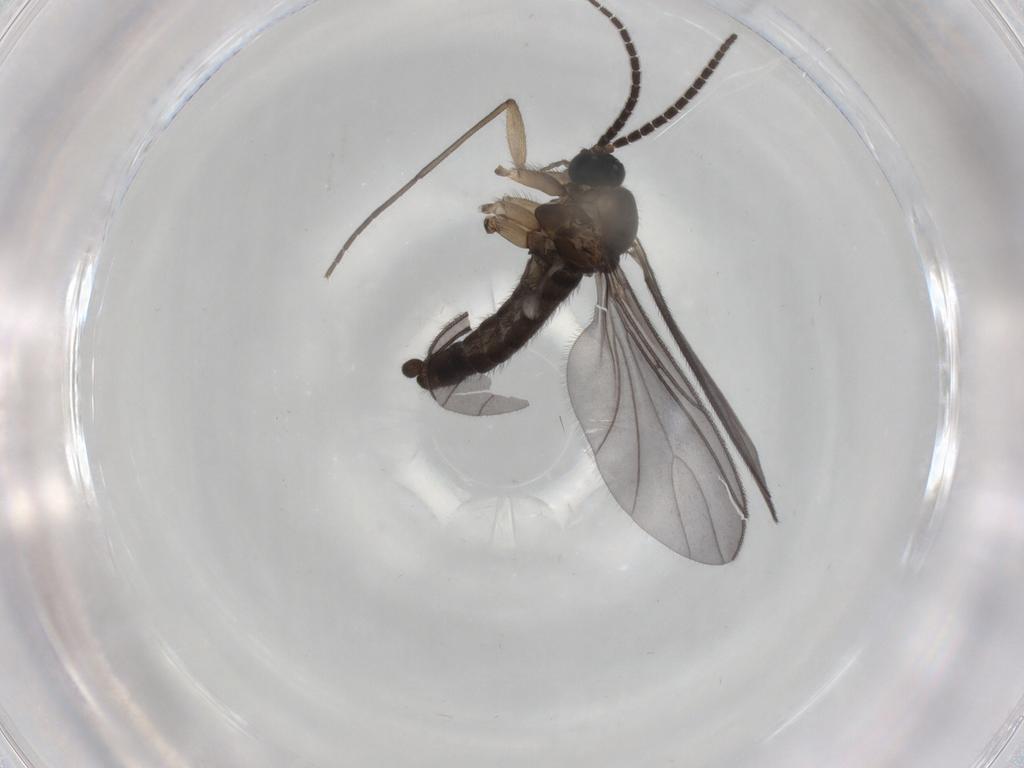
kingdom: Animalia
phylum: Arthropoda
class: Insecta
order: Diptera
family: Sciaridae
